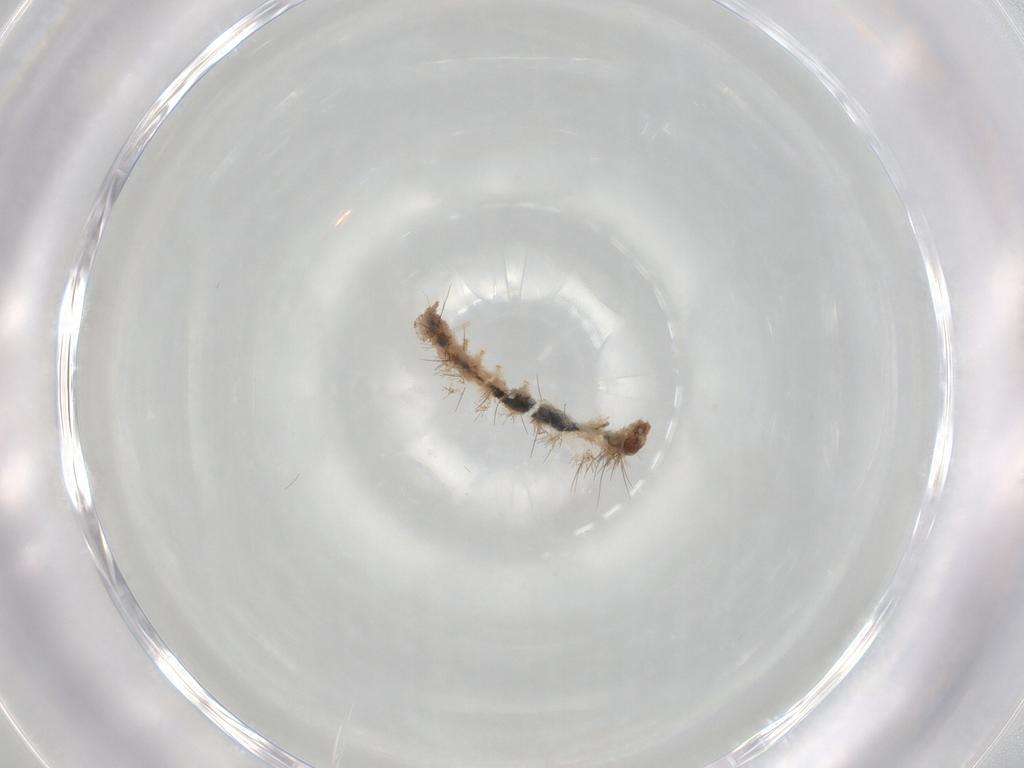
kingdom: Animalia
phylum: Arthropoda
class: Insecta
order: Lepidoptera
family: Erebidae
